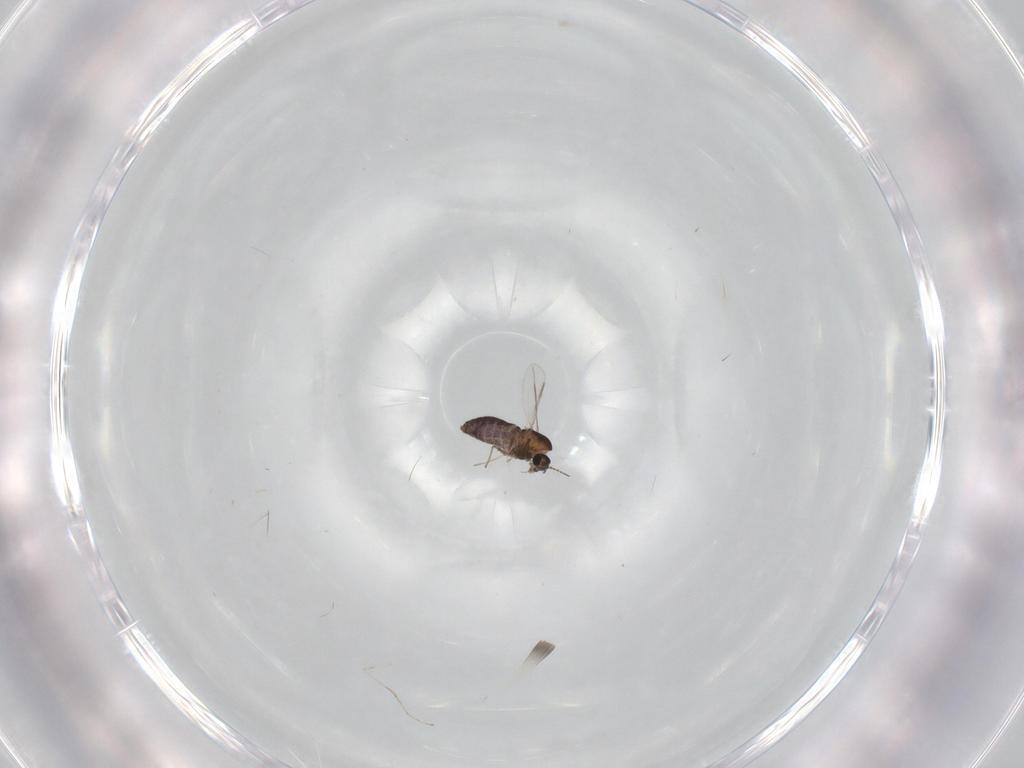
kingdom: Animalia
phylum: Arthropoda
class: Insecta
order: Diptera
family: Chironomidae
